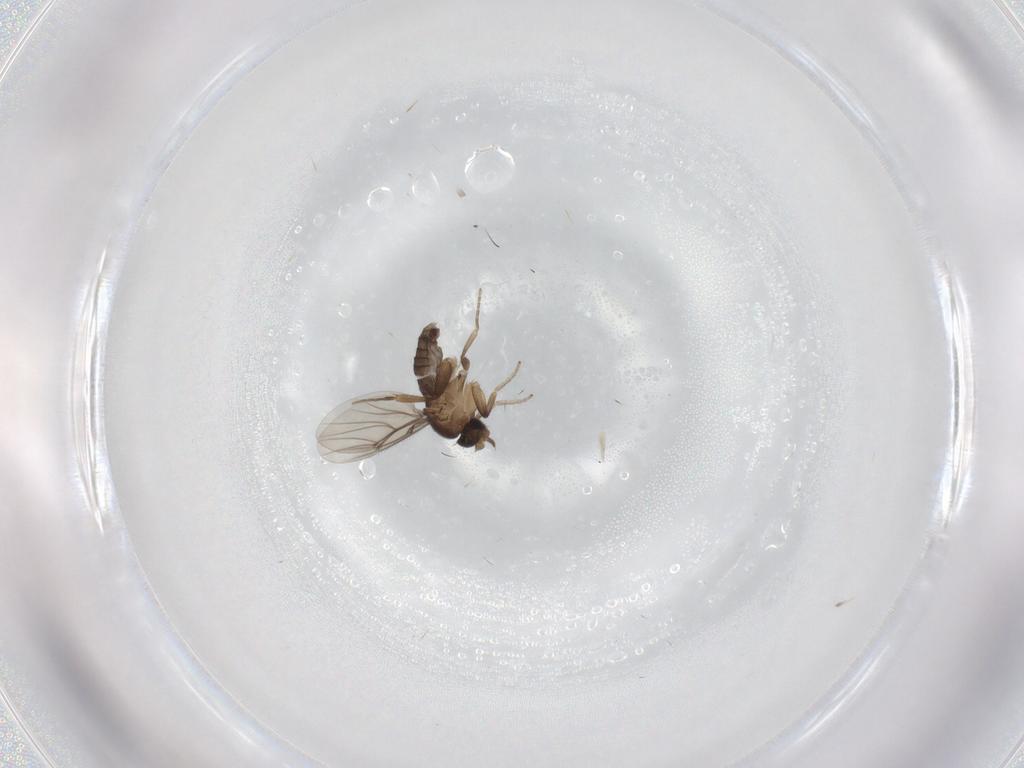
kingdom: Animalia
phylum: Arthropoda
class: Insecta
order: Diptera
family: Phoridae
